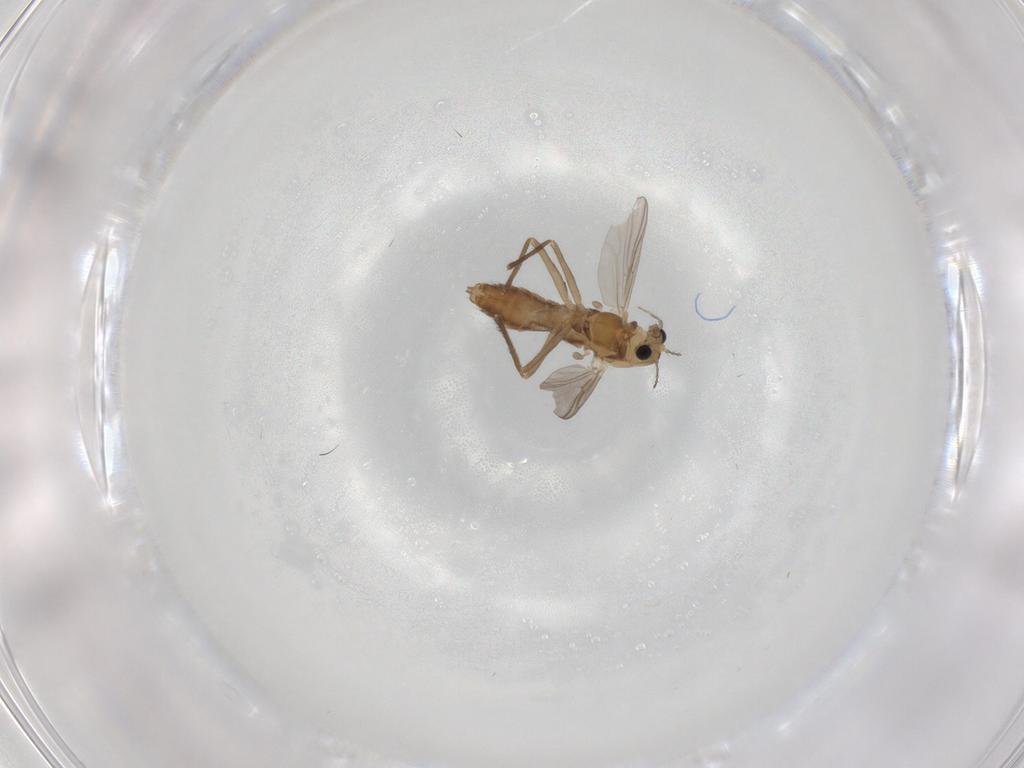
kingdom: Animalia
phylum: Arthropoda
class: Insecta
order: Diptera
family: Chironomidae
